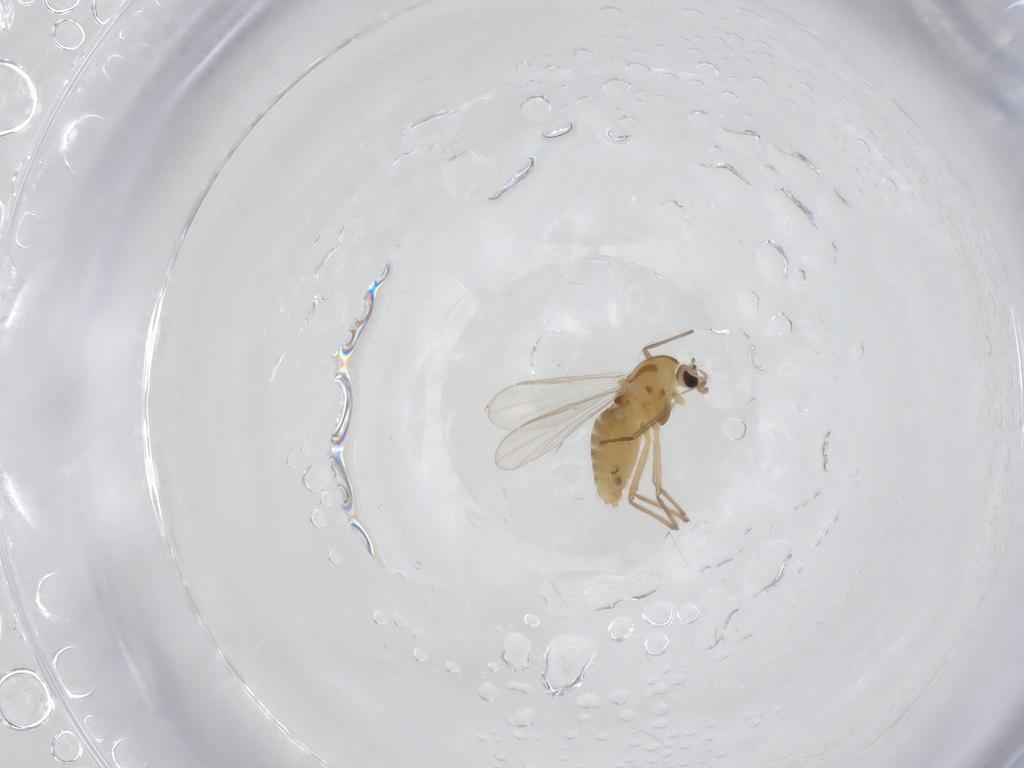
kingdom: Animalia
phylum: Arthropoda
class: Insecta
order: Diptera
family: Chironomidae
